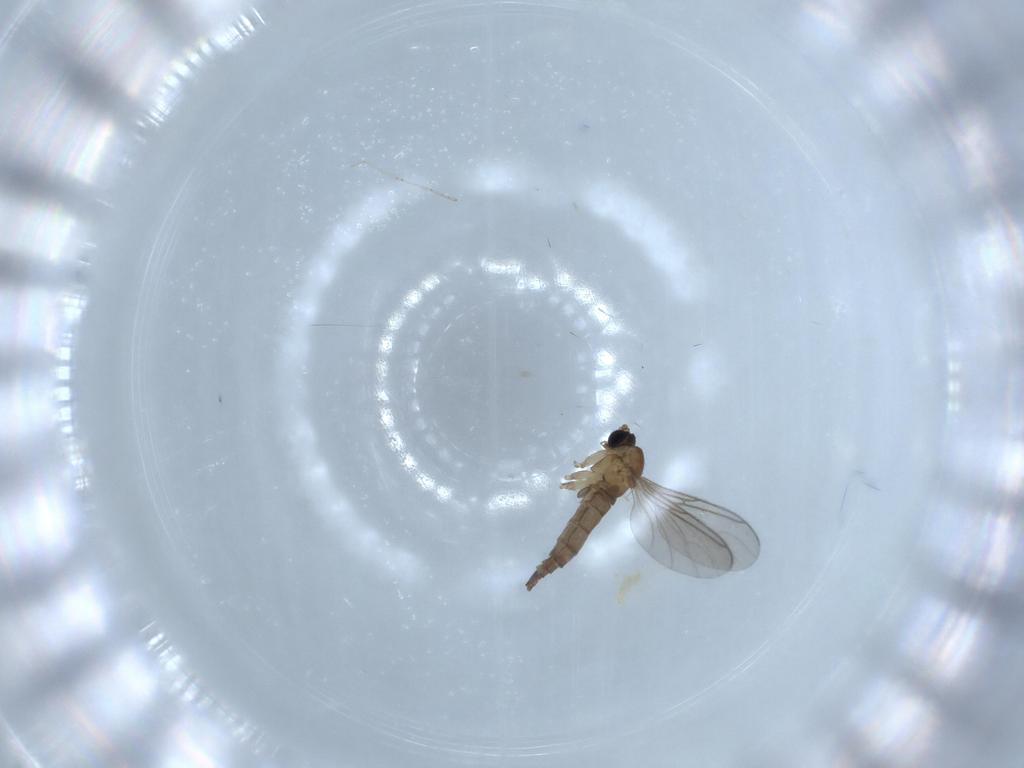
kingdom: Animalia
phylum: Arthropoda
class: Insecta
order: Diptera
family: Sciaridae
